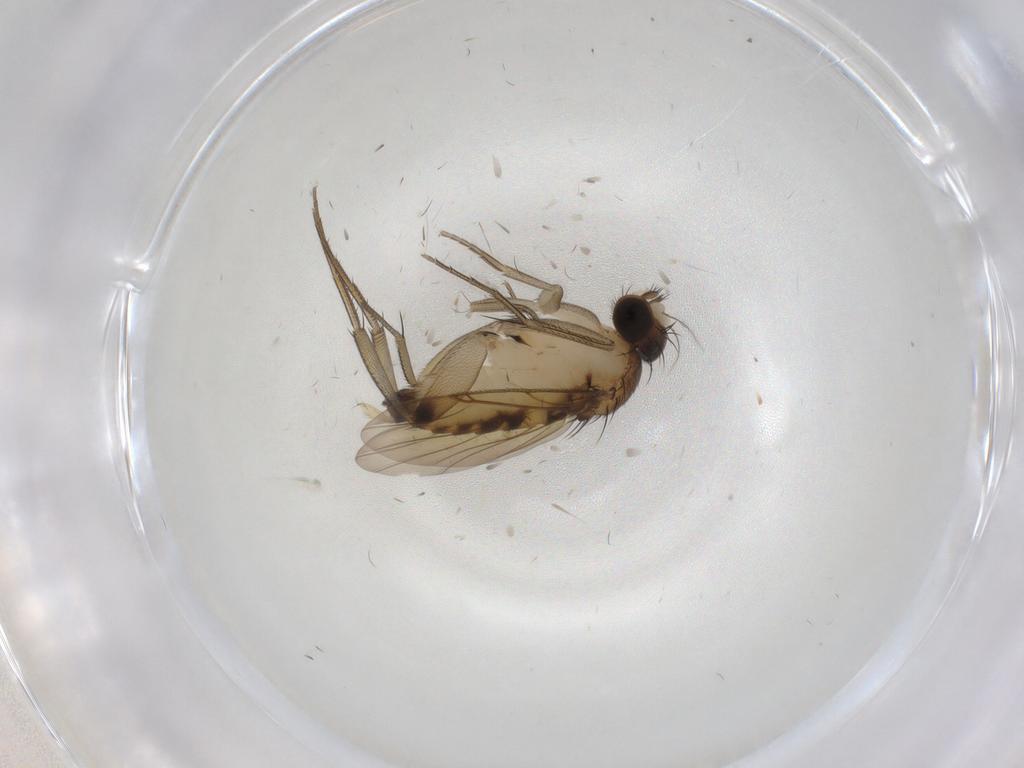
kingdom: Animalia
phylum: Arthropoda
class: Insecta
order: Diptera
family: Phoridae
